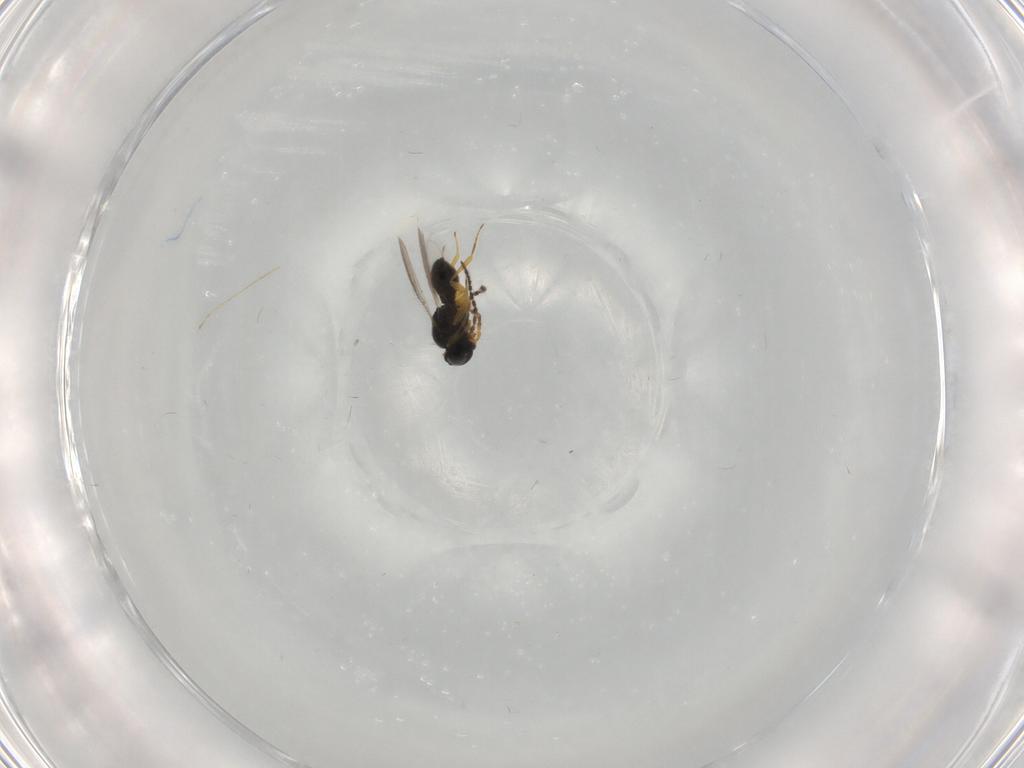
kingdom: Animalia
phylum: Arthropoda
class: Insecta
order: Hymenoptera
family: Scelionidae
